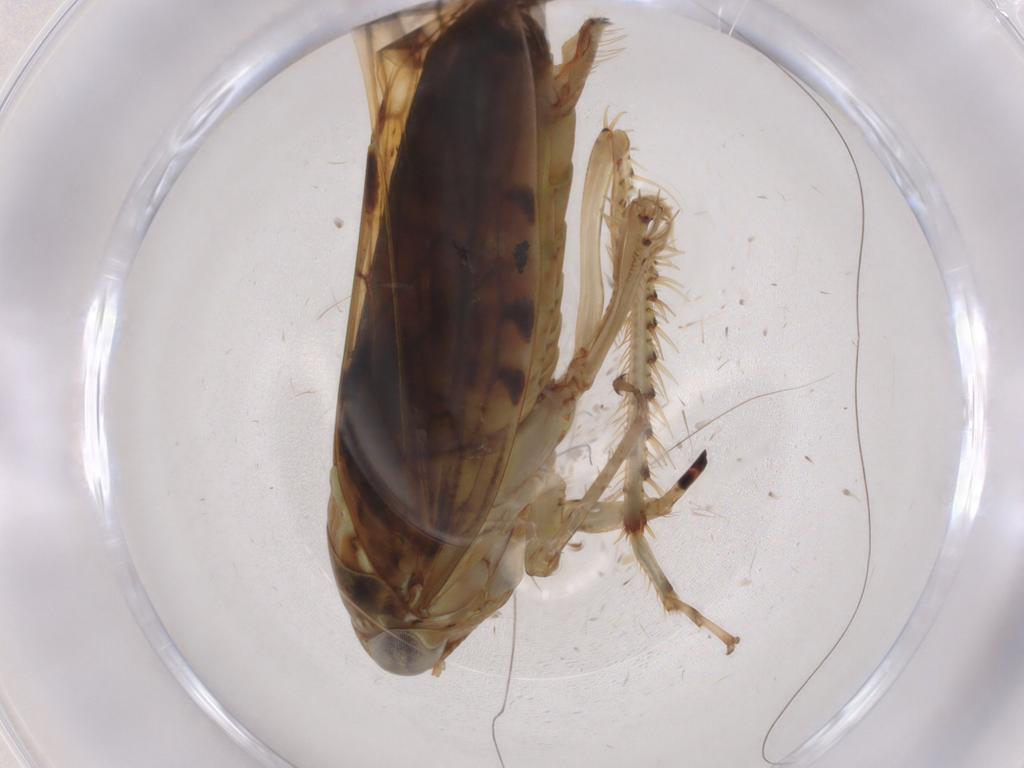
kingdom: Animalia
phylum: Arthropoda
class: Insecta
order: Hemiptera
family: Cicadellidae
